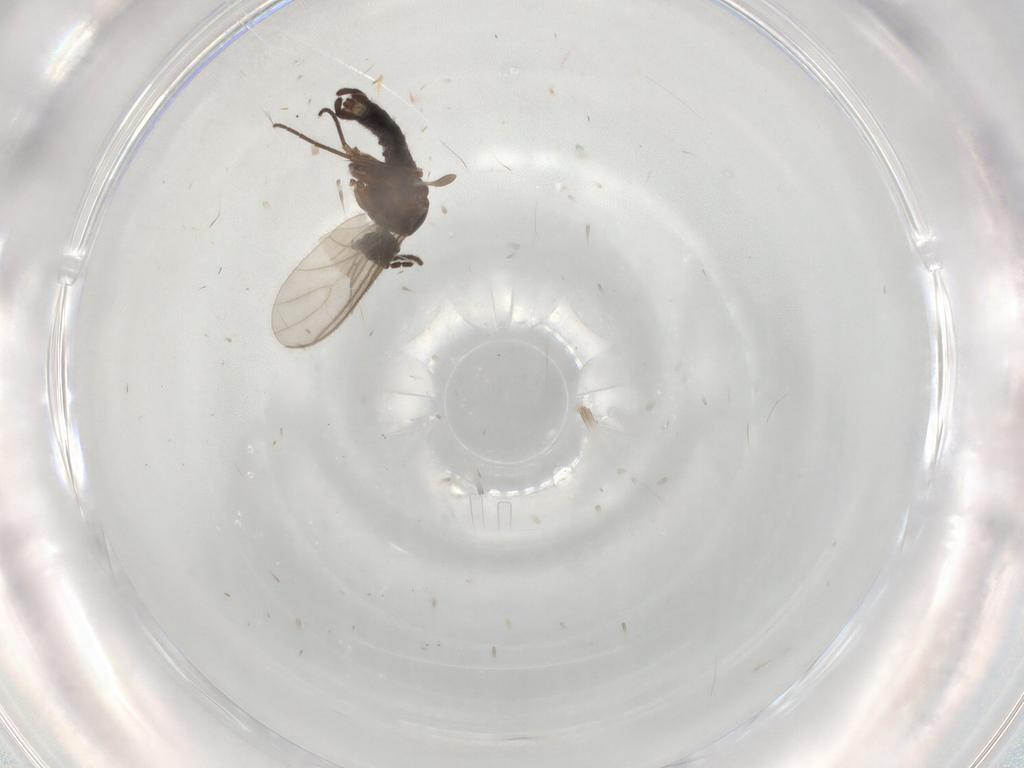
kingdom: Animalia
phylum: Arthropoda
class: Insecta
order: Diptera
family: Sciaridae
